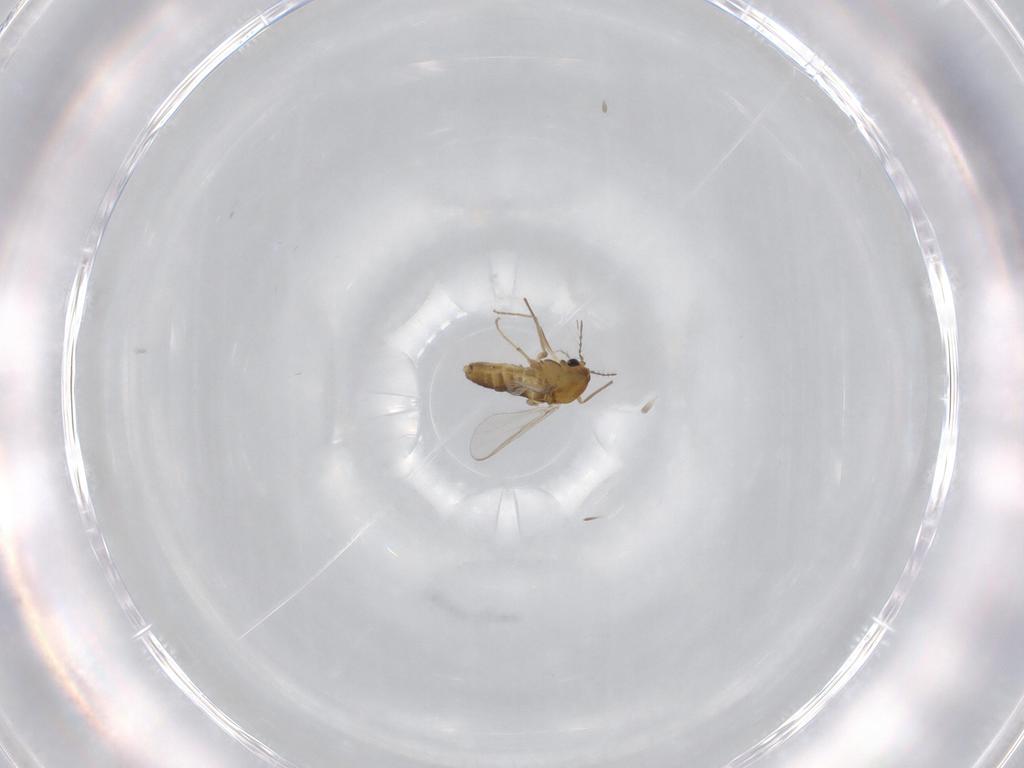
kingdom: Animalia
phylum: Arthropoda
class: Insecta
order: Diptera
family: Chironomidae
